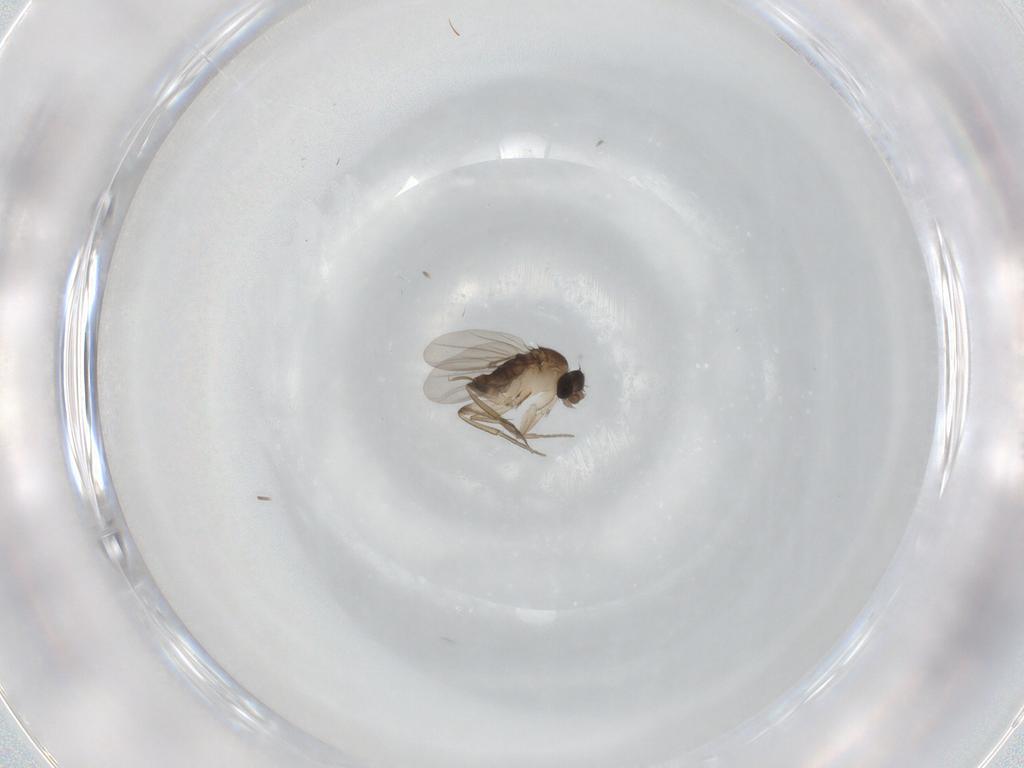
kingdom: Animalia
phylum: Arthropoda
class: Insecta
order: Diptera
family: Phoridae
